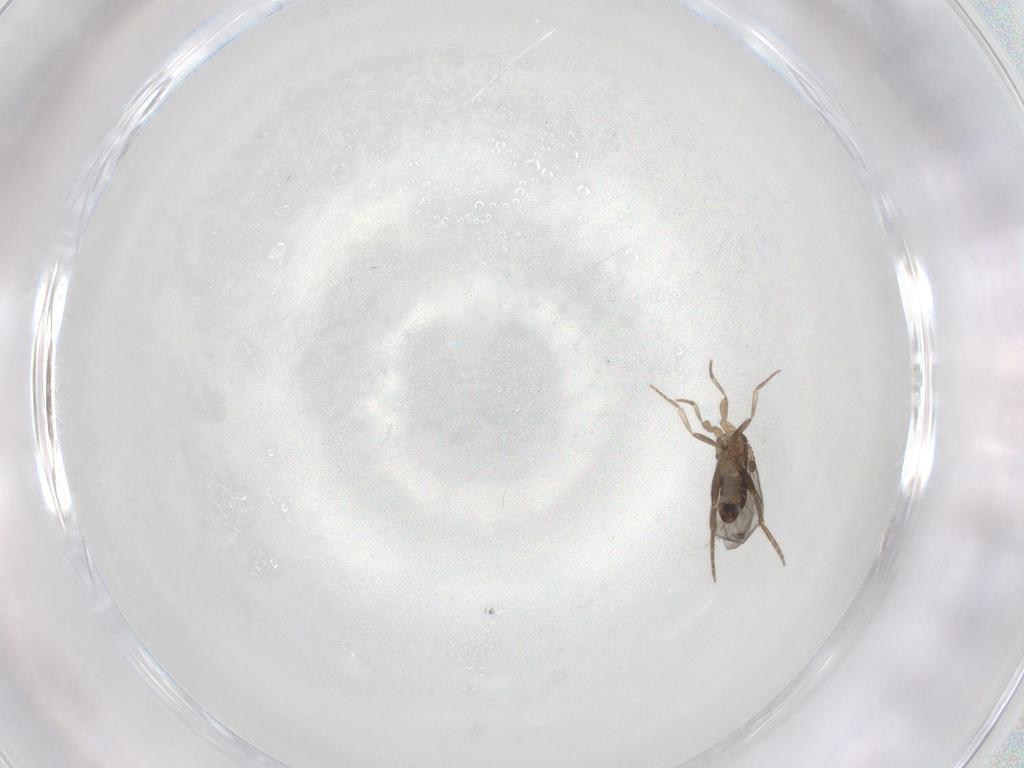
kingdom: Animalia
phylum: Arthropoda
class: Insecta
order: Diptera
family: Phoridae
